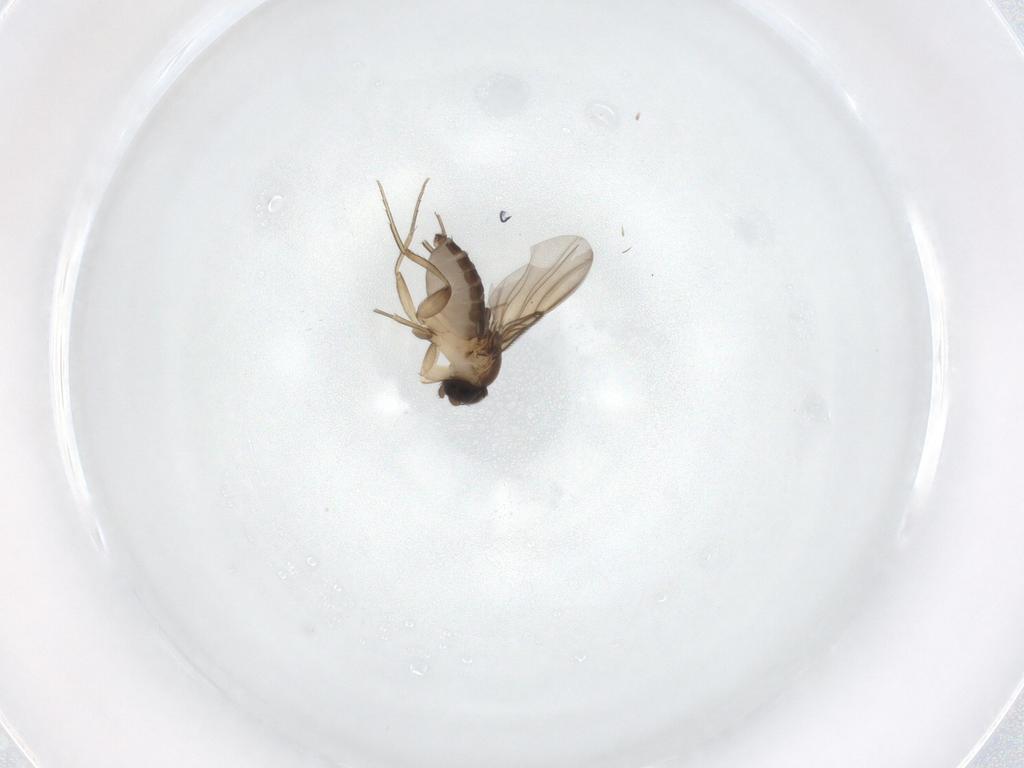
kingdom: Animalia
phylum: Arthropoda
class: Insecta
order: Diptera
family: Phoridae
